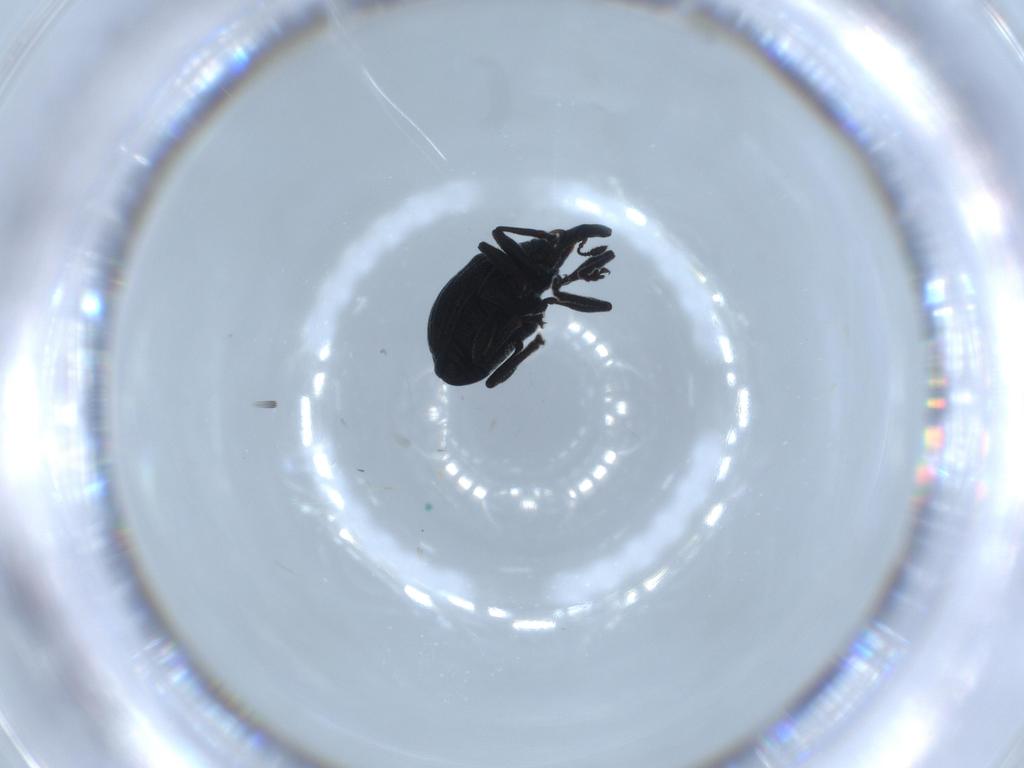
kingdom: Animalia
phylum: Arthropoda
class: Insecta
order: Coleoptera
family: Brentidae
